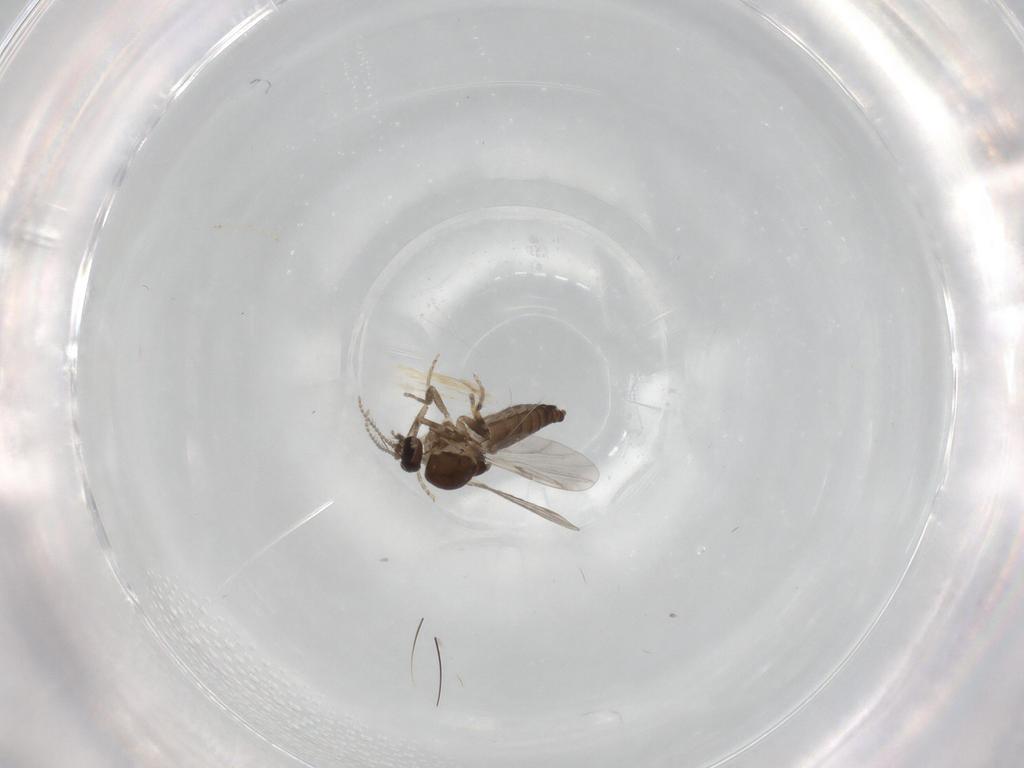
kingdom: Animalia
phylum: Arthropoda
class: Insecta
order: Diptera
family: Ceratopogonidae
